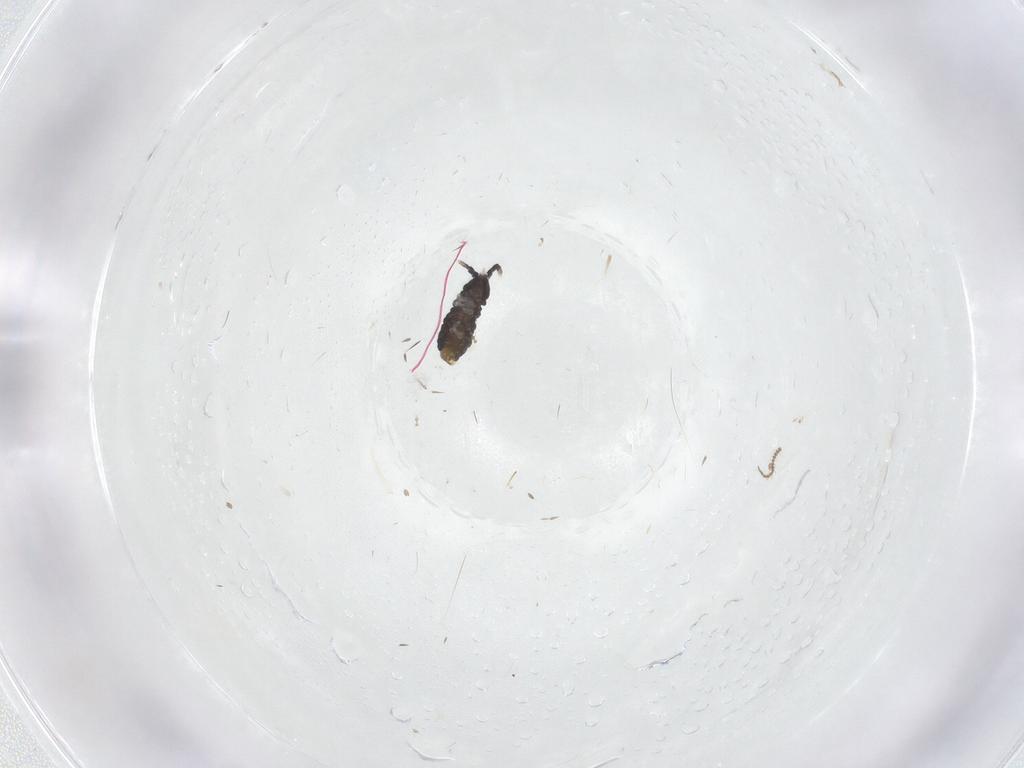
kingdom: Animalia
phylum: Arthropoda
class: Collembola
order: Poduromorpha
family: Neanuridae
